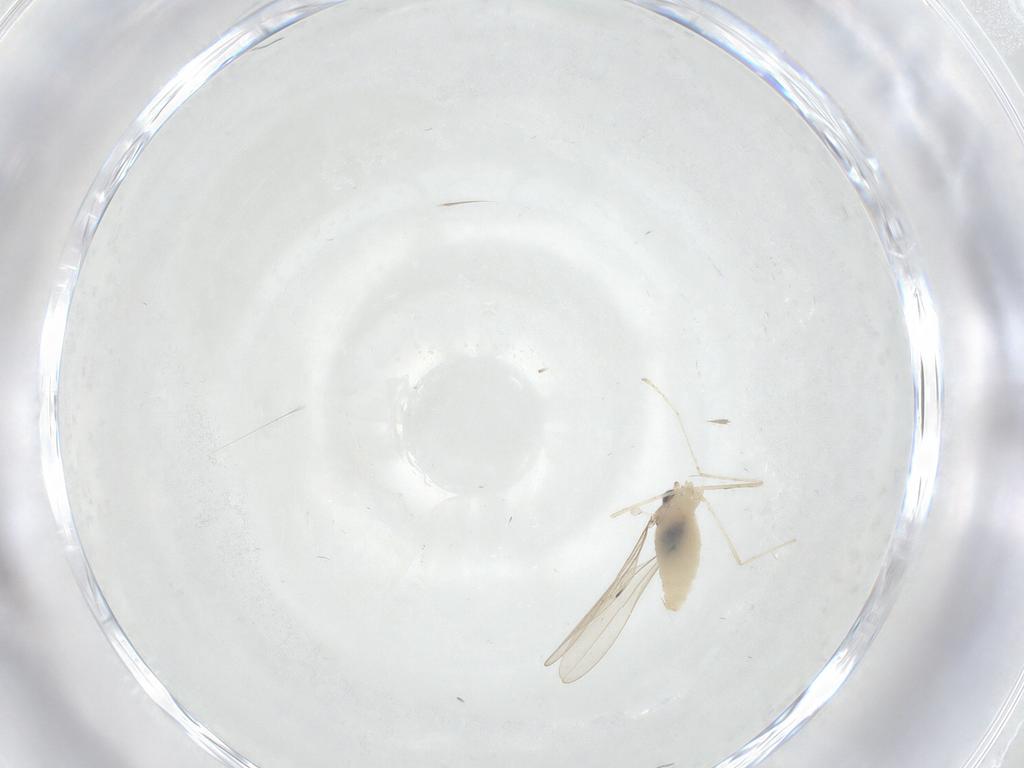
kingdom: Animalia
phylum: Arthropoda
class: Insecta
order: Diptera
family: Cecidomyiidae
